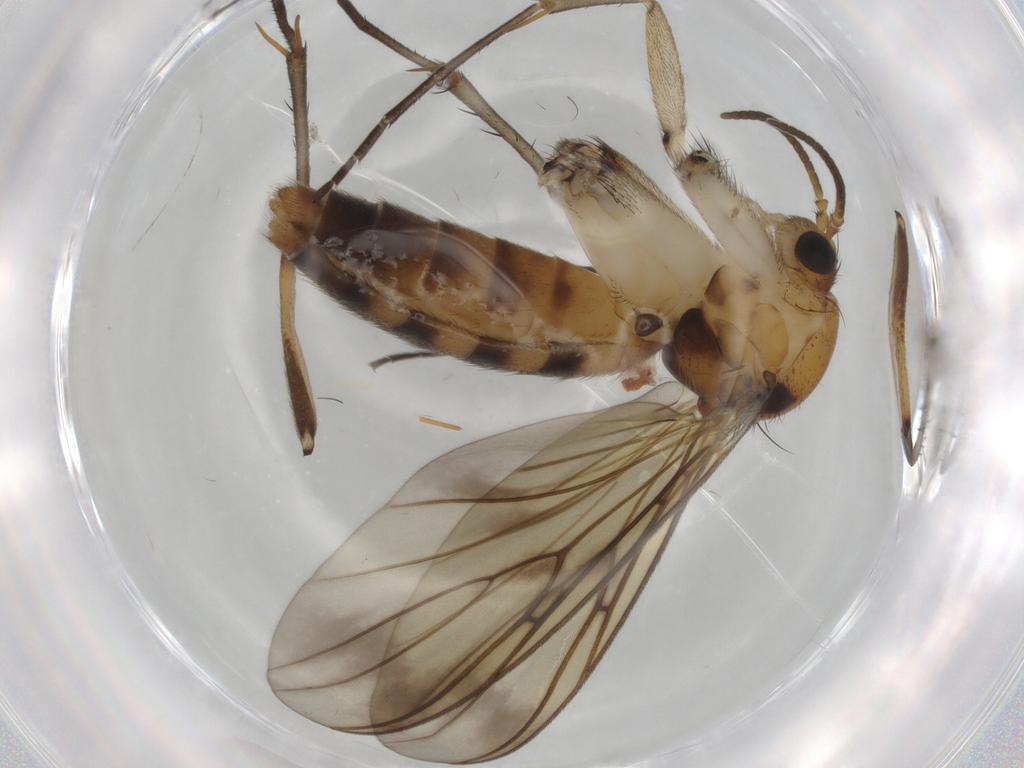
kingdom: Animalia
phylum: Arthropoda
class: Insecta
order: Diptera
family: Mycetophilidae
